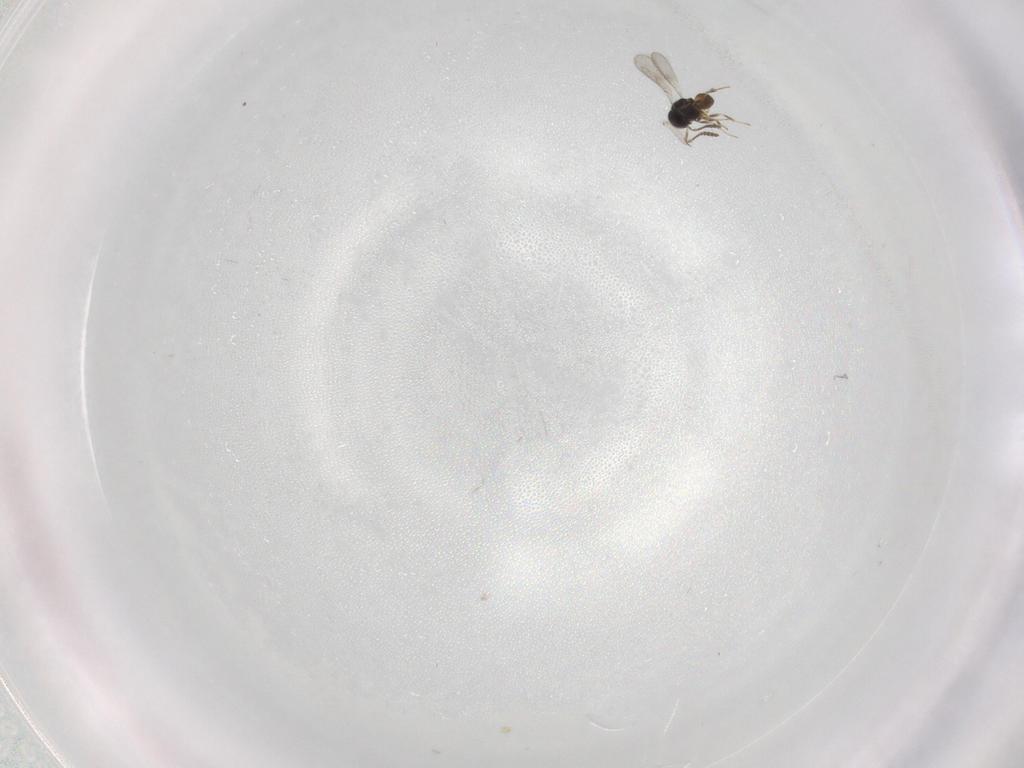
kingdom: Animalia
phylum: Arthropoda
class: Insecta
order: Hymenoptera
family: Scelionidae
